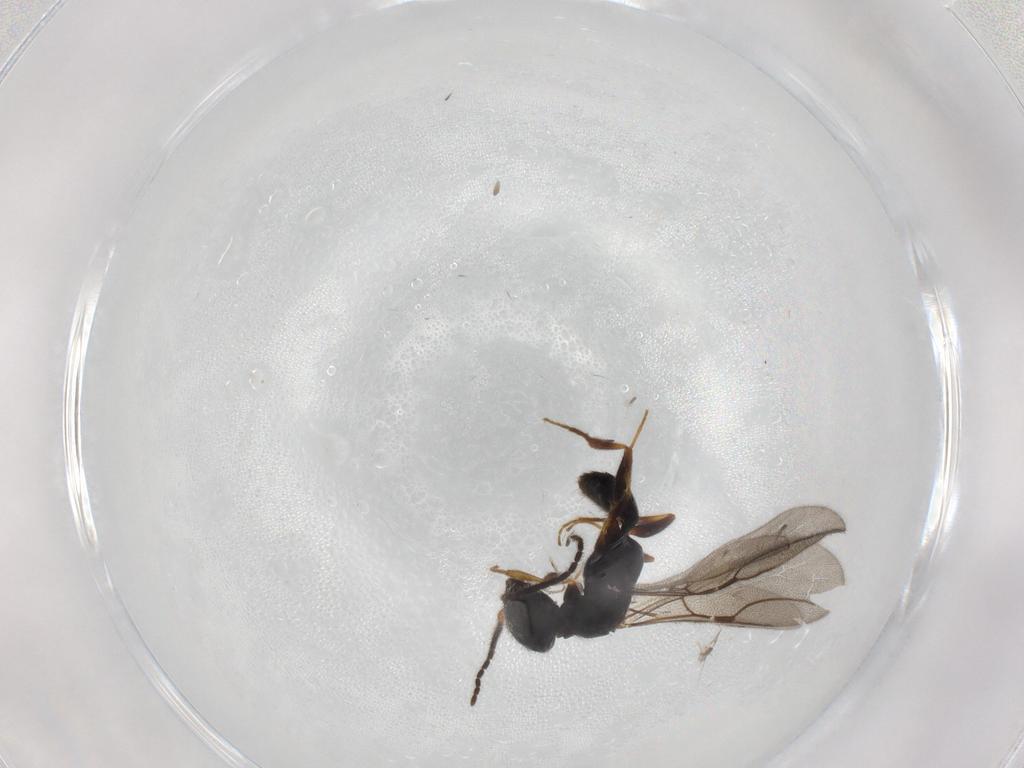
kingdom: Animalia
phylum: Arthropoda
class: Insecta
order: Hymenoptera
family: Bethylidae
